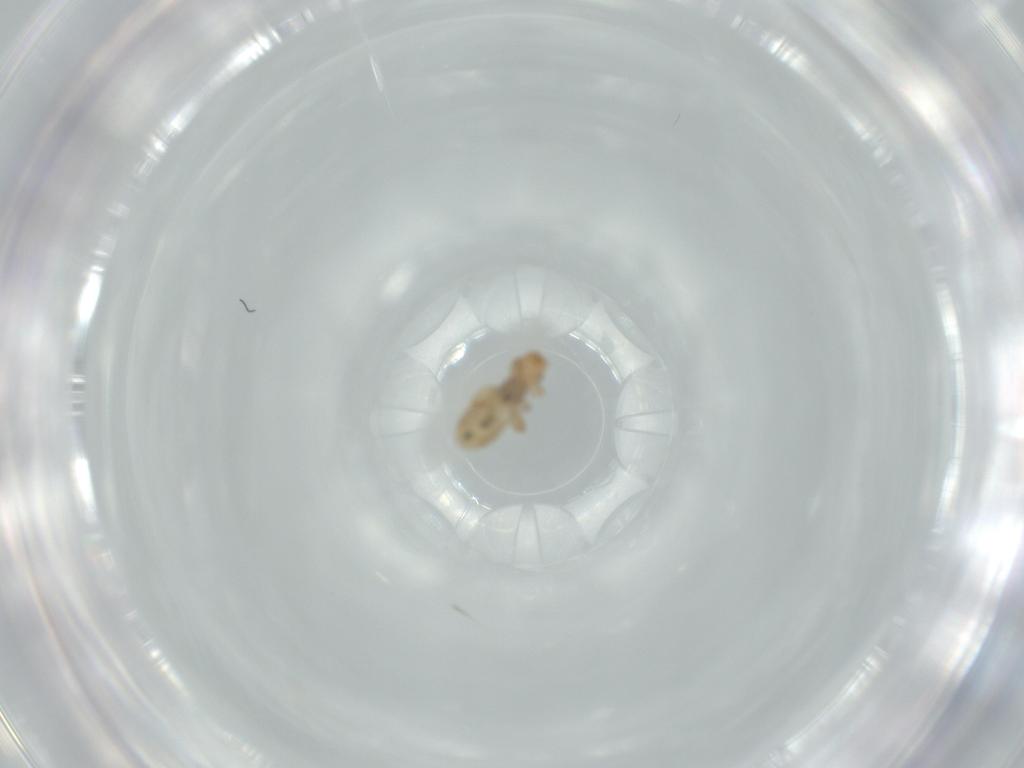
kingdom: Animalia
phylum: Arthropoda
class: Insecta
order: Psocodea
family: Liposcelididae
